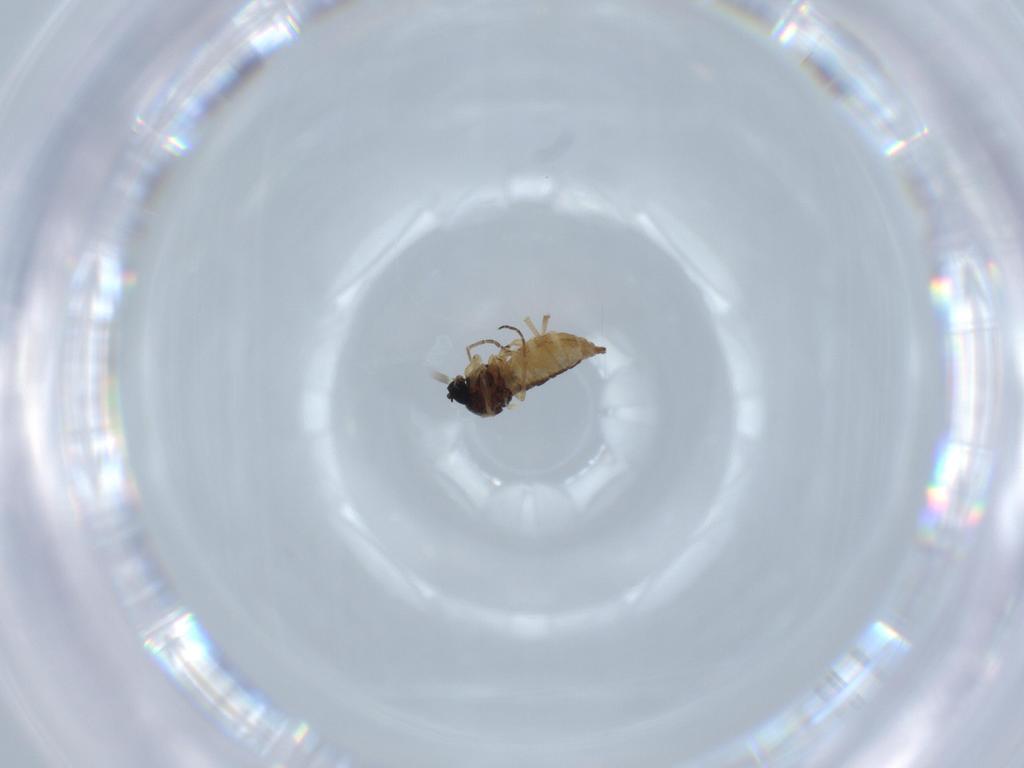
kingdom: Animalia
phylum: Arthropoda
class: Insecta
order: Diptera
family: Sciaridae
